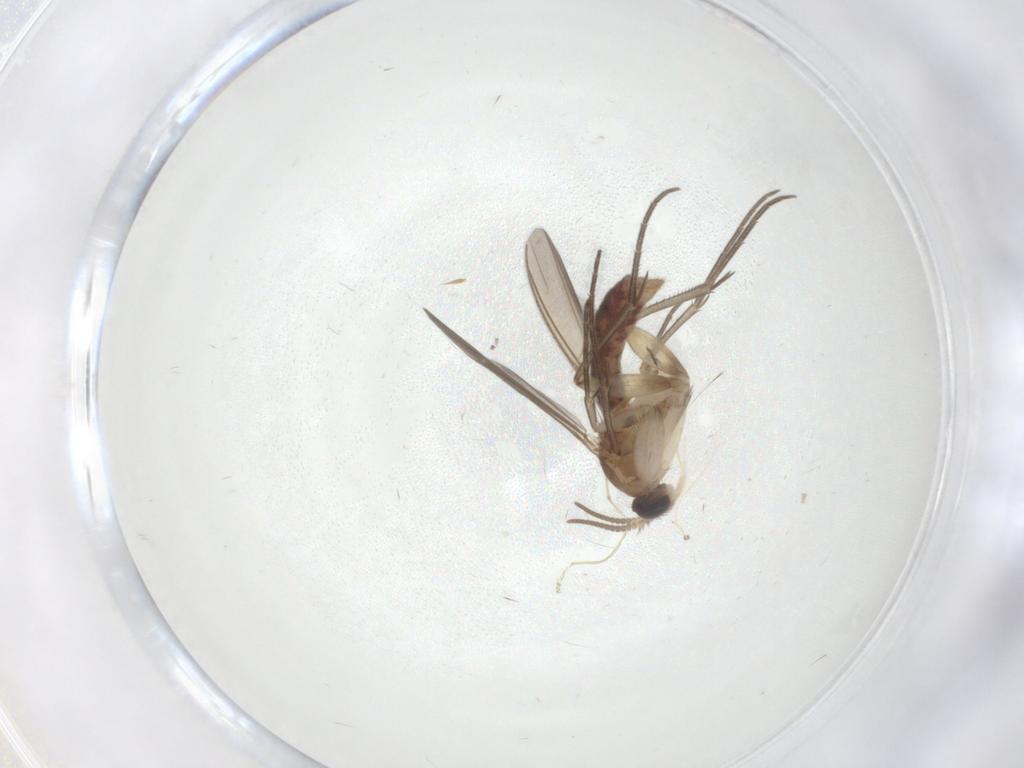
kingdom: Animalia
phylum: Arthropoda
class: Insecta
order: Diptera
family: Mycetophilidae
